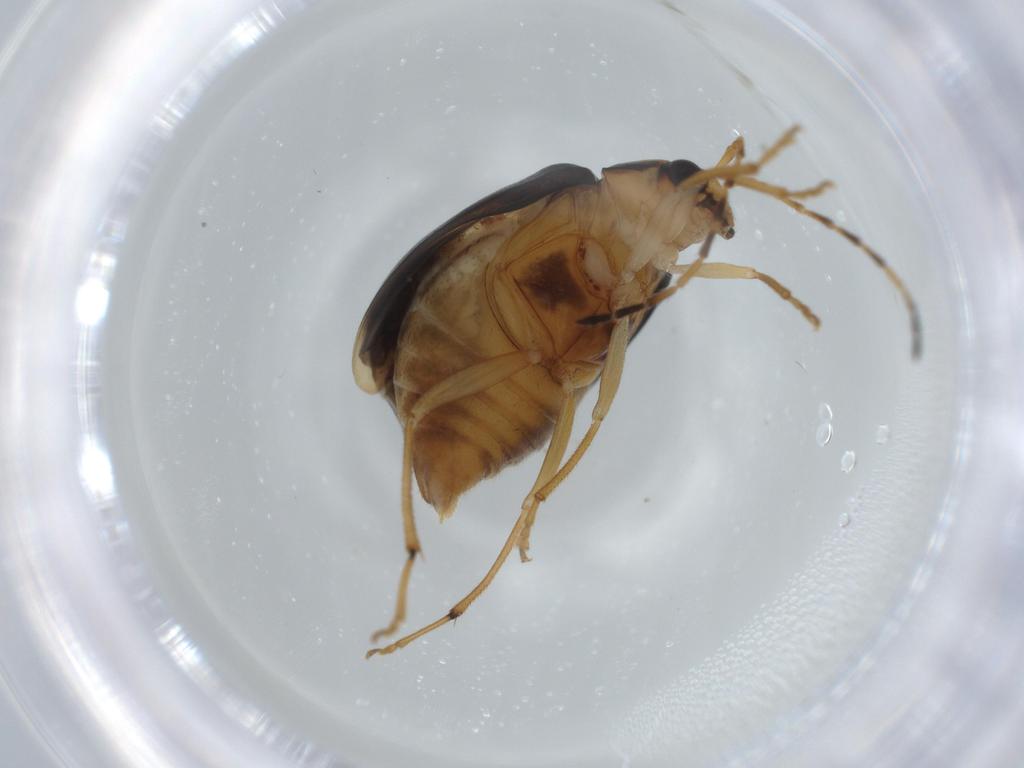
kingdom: Animalia
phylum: Arthropoda
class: Insecta
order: Coleoptera
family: Chrysomelidae
